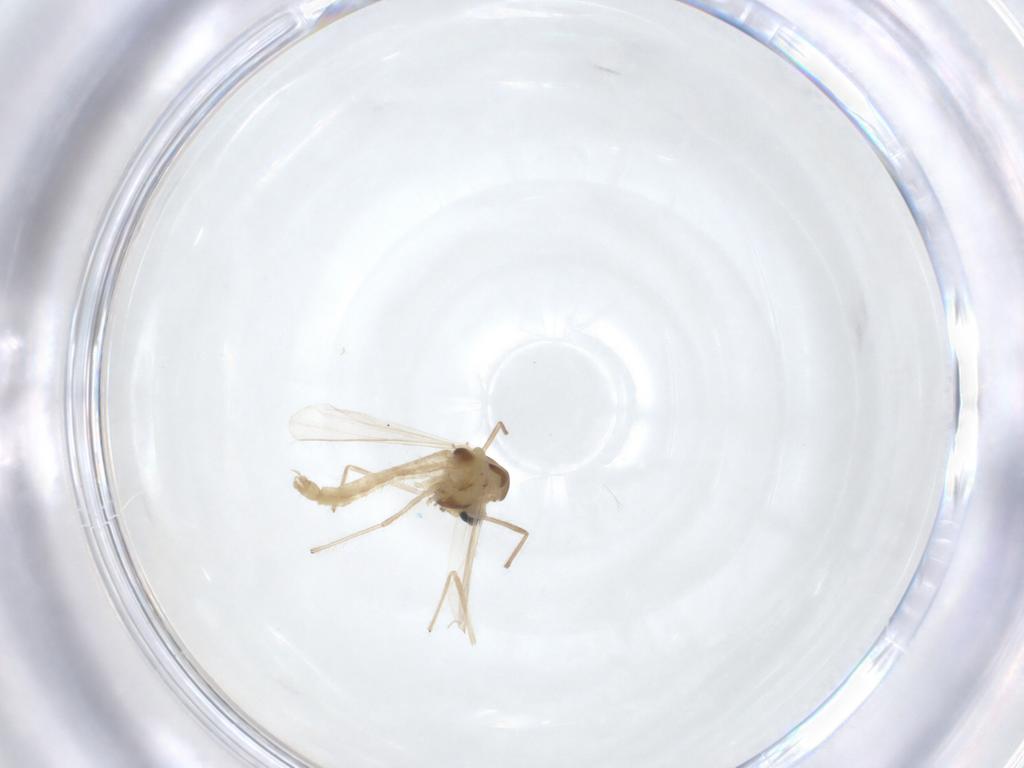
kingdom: Animalia
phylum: Arthropoda
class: Insecta
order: Diptera
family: Chironomidae
